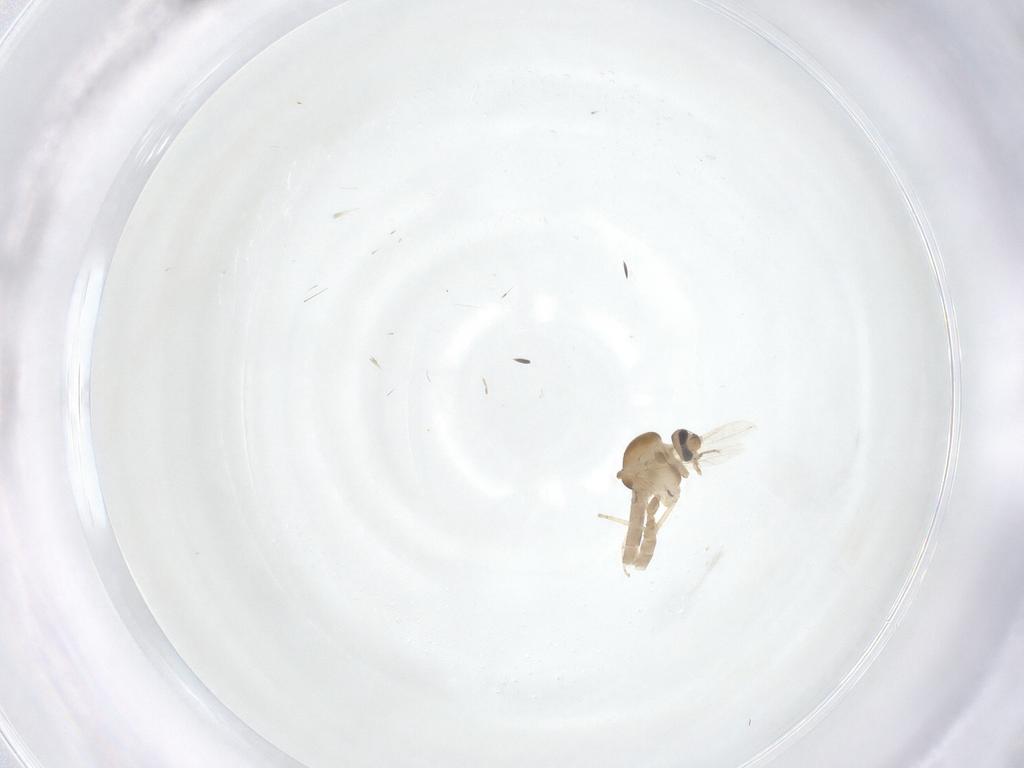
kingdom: Animalia
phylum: Arthropoda
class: Insecta
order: Diptera
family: Ceratopogonidae
